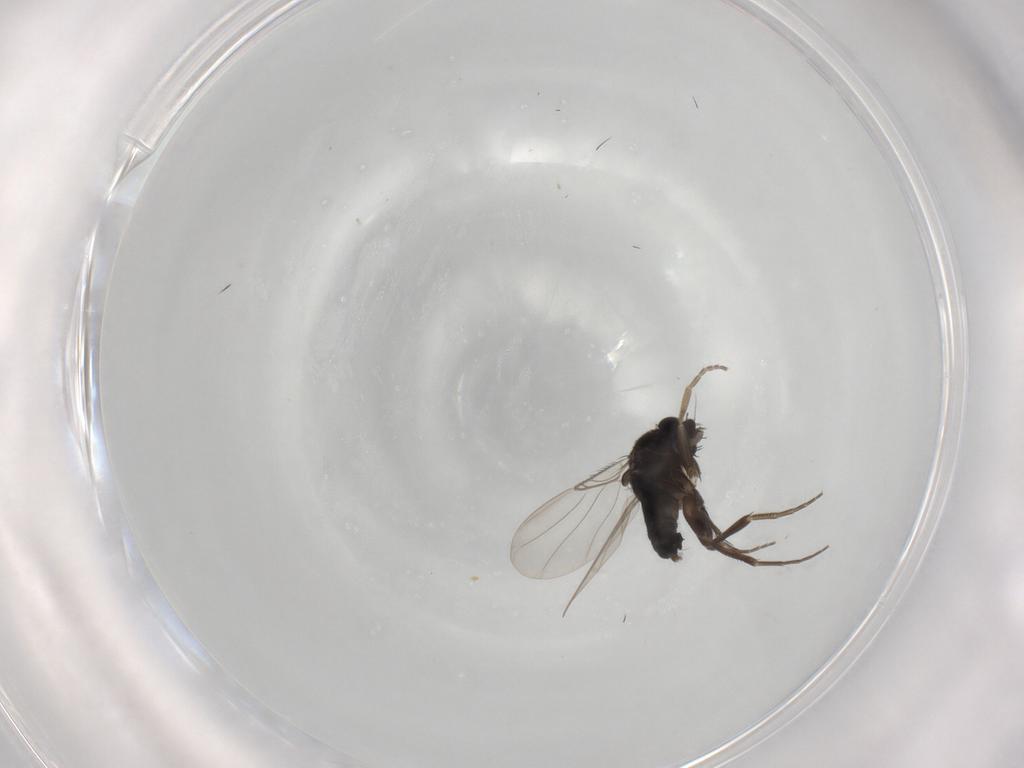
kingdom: Animalia
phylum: Arthropoda
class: Insecta
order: Diptera
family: Phoridae
